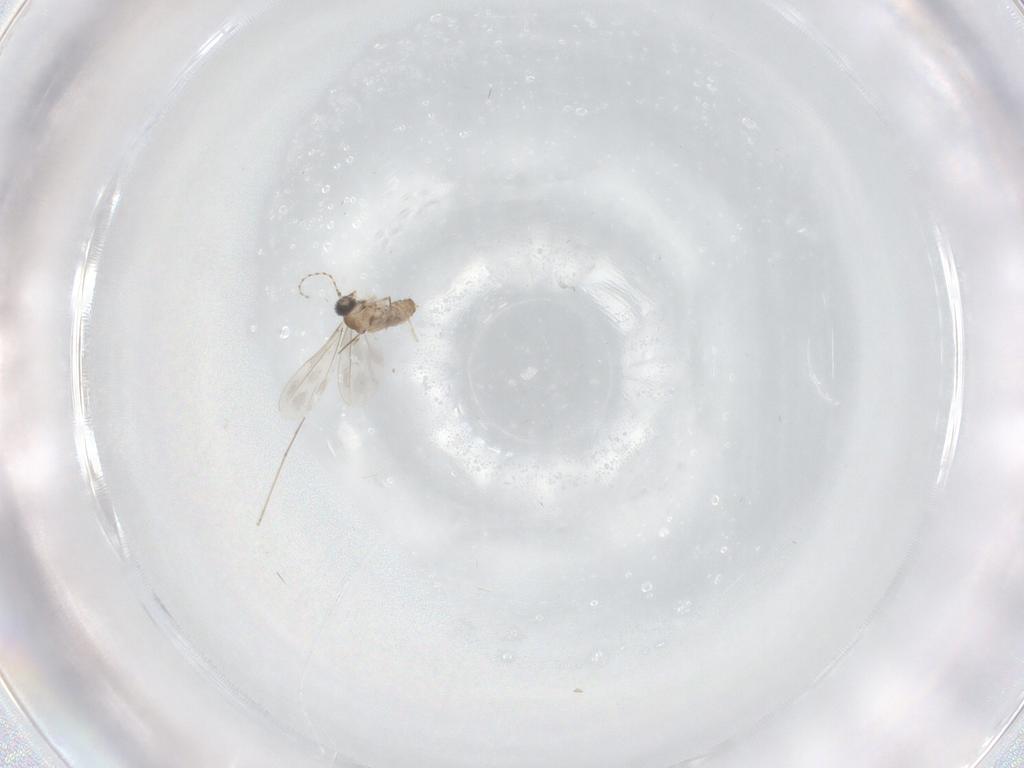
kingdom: Animalia
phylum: Arthropoda
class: Insecta
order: Diptera
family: Cecidomyiidae
